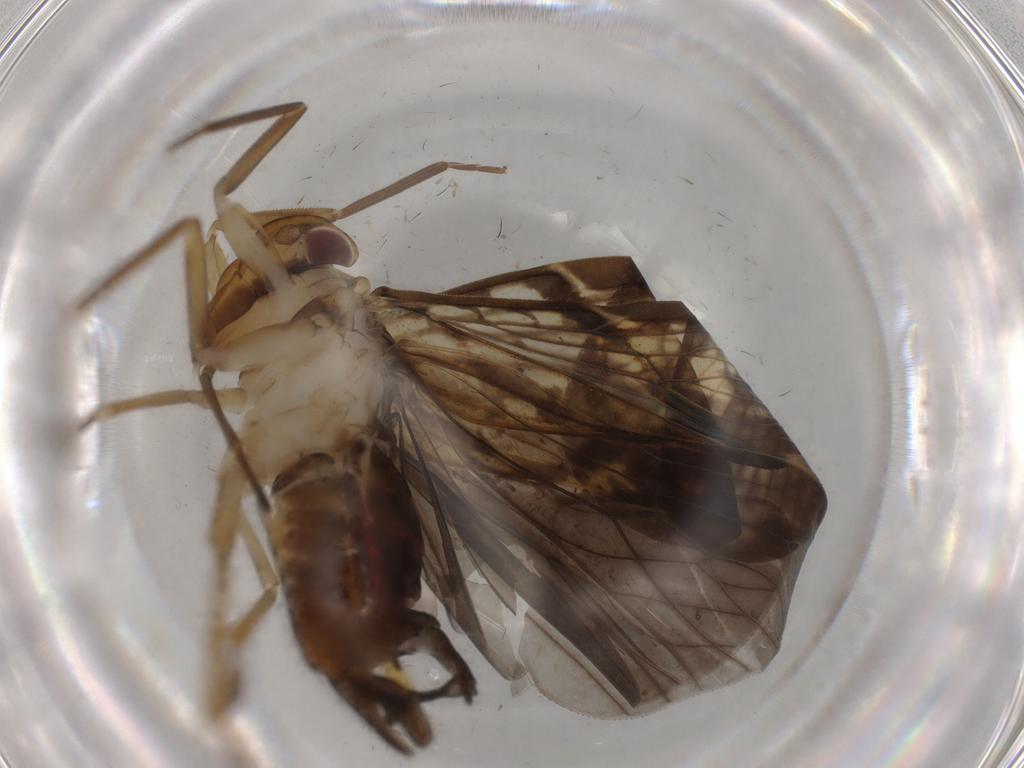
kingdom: Animalia
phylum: Arthropoda
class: Insecta
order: Hemiptera
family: Cixiidae
